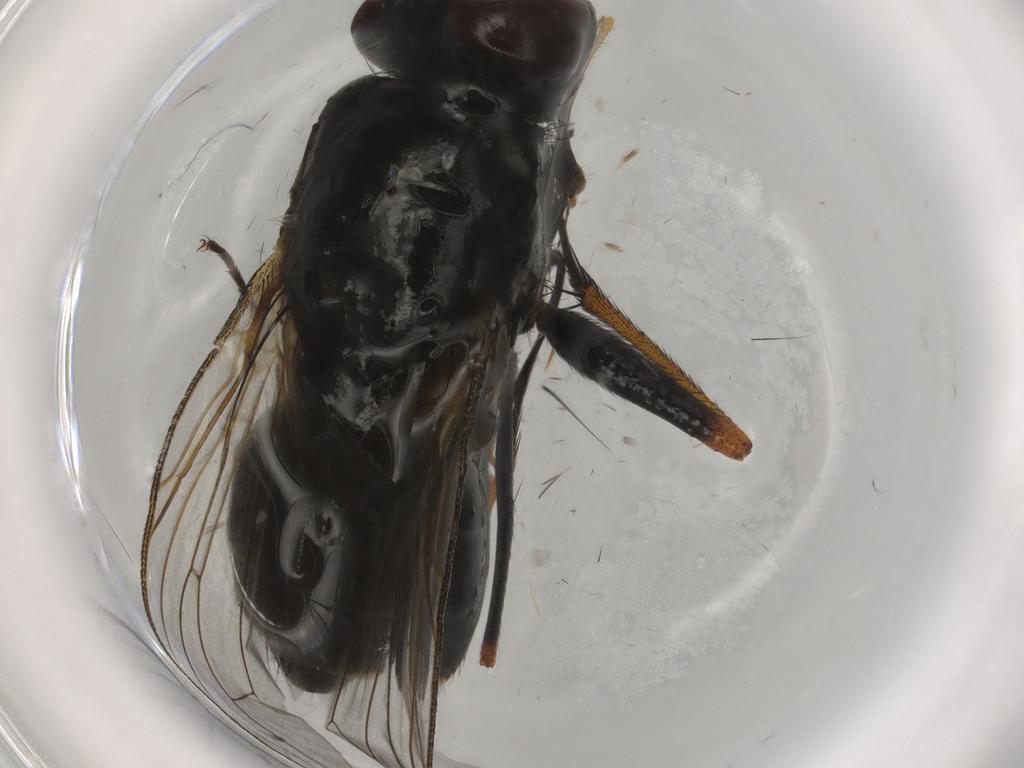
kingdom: Animalia
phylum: Arthropoda
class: Insecta
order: Diptera
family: Muscidae
